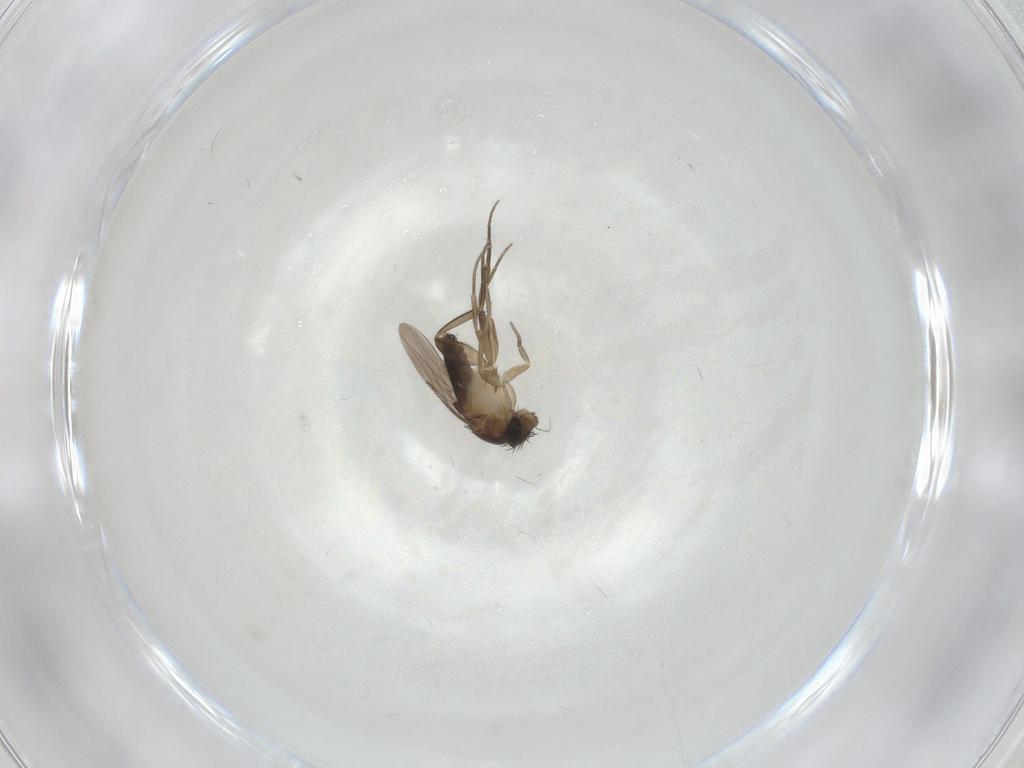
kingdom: Animalia
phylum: Arthropoda
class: Insecta
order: Diptera
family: Phoridae
